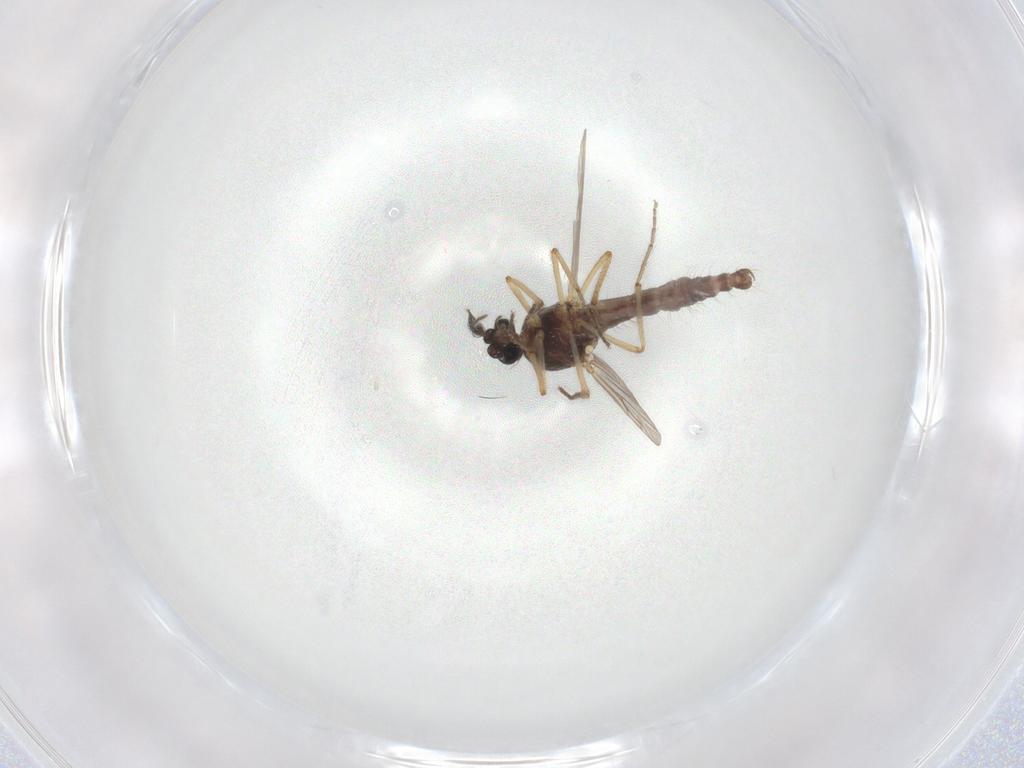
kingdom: Animalia
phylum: Arthropoda
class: Insecta
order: Diptera
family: Ceratopogonidae
